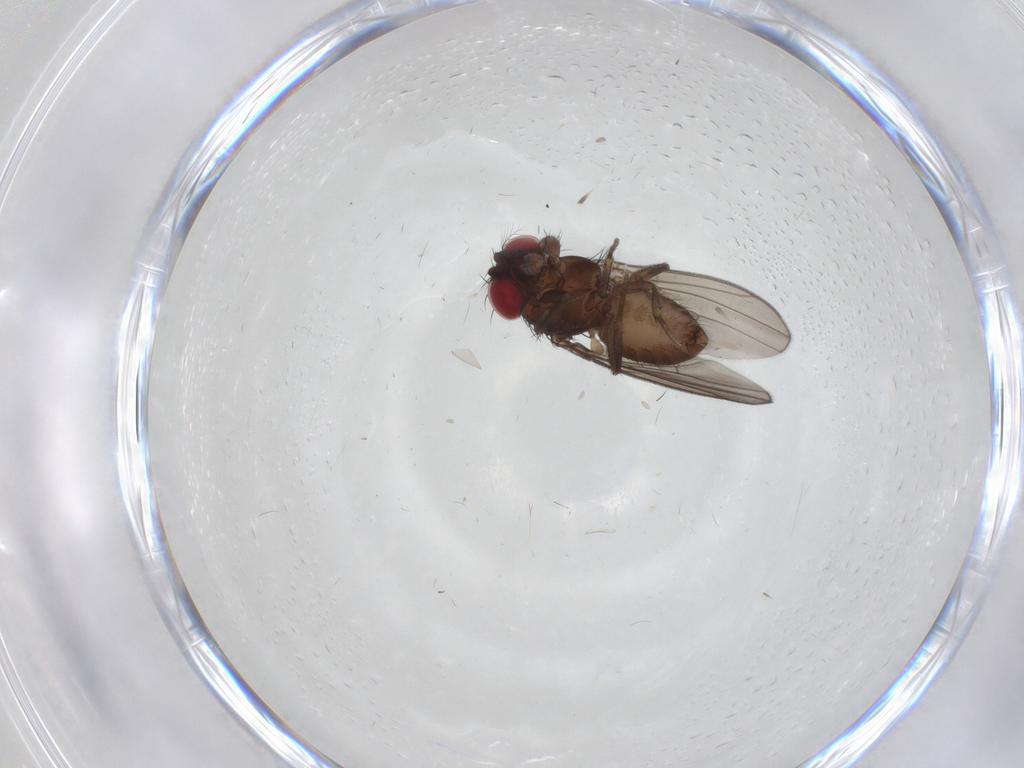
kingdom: Animalia
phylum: Arthropoda
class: Insecta
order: Diptera
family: Drosophilidae
